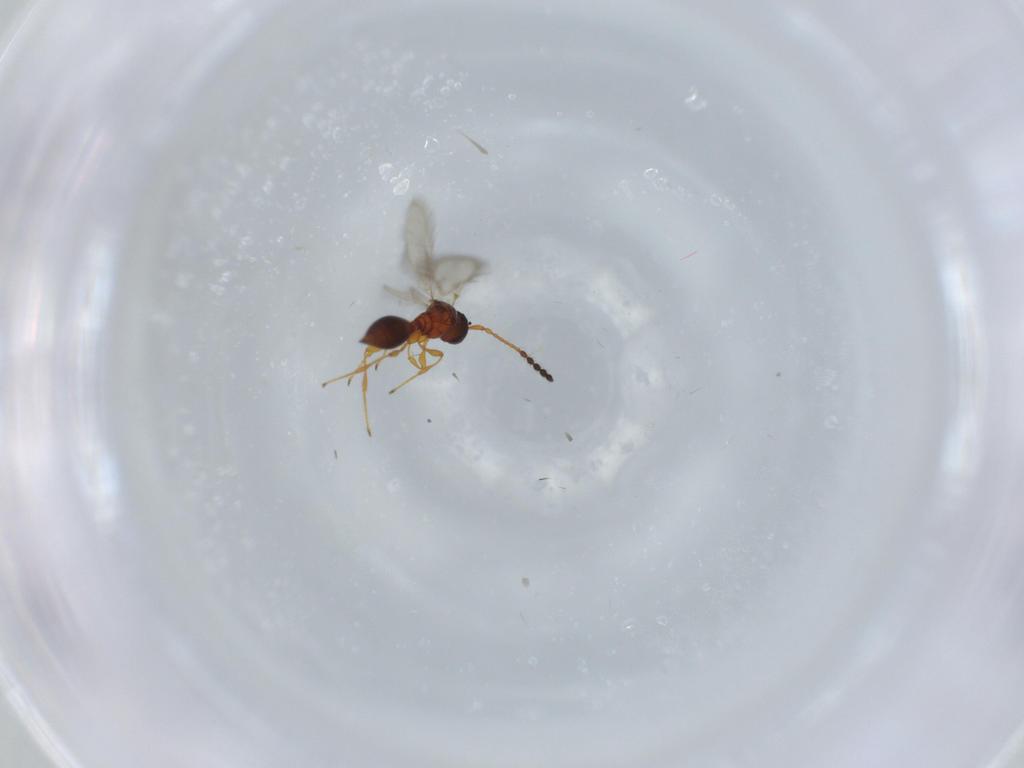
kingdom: Animalia
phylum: Arthropoda
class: Insecta
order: Hymenoptera
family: Diapriidae
